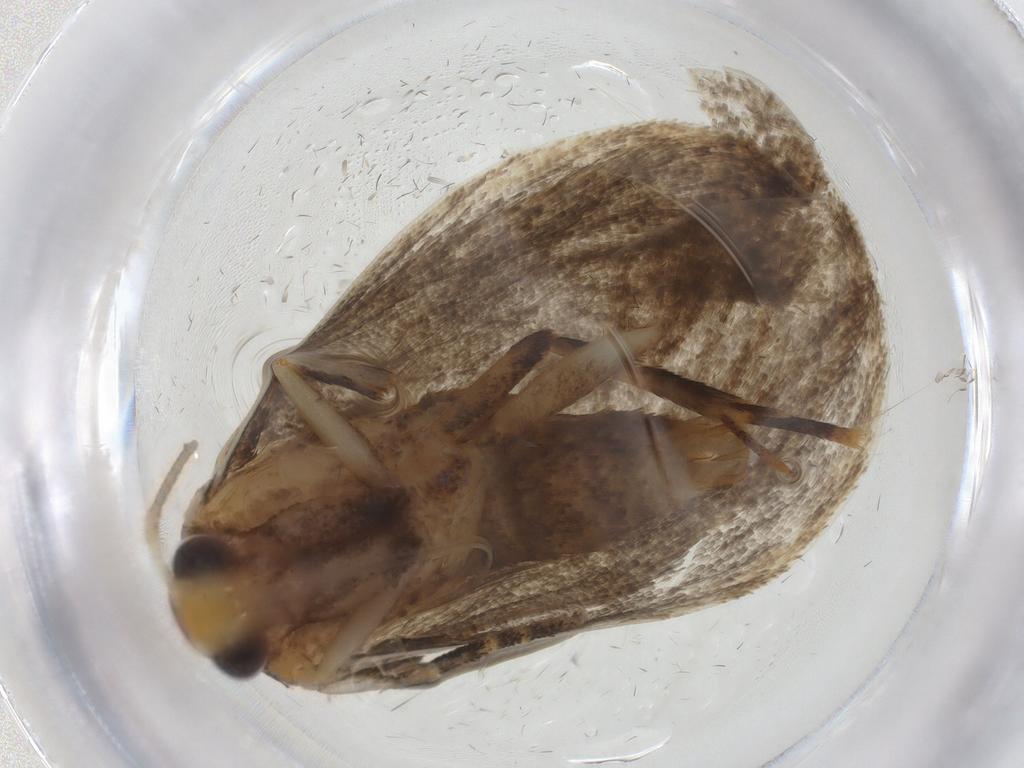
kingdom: Animalia
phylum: Arthropoda
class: Insecta
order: Lepidoptera
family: Oecophoridae
